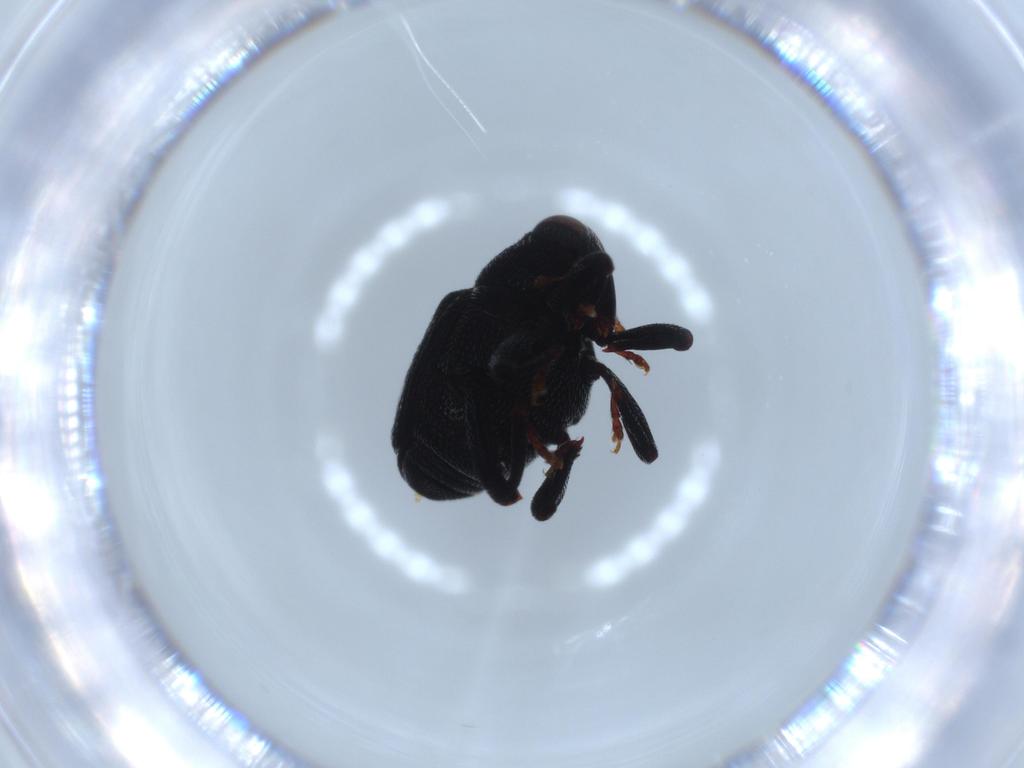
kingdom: Animalia
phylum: Arthropoda
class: Insecta
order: Coleoptera
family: Curculionidae
